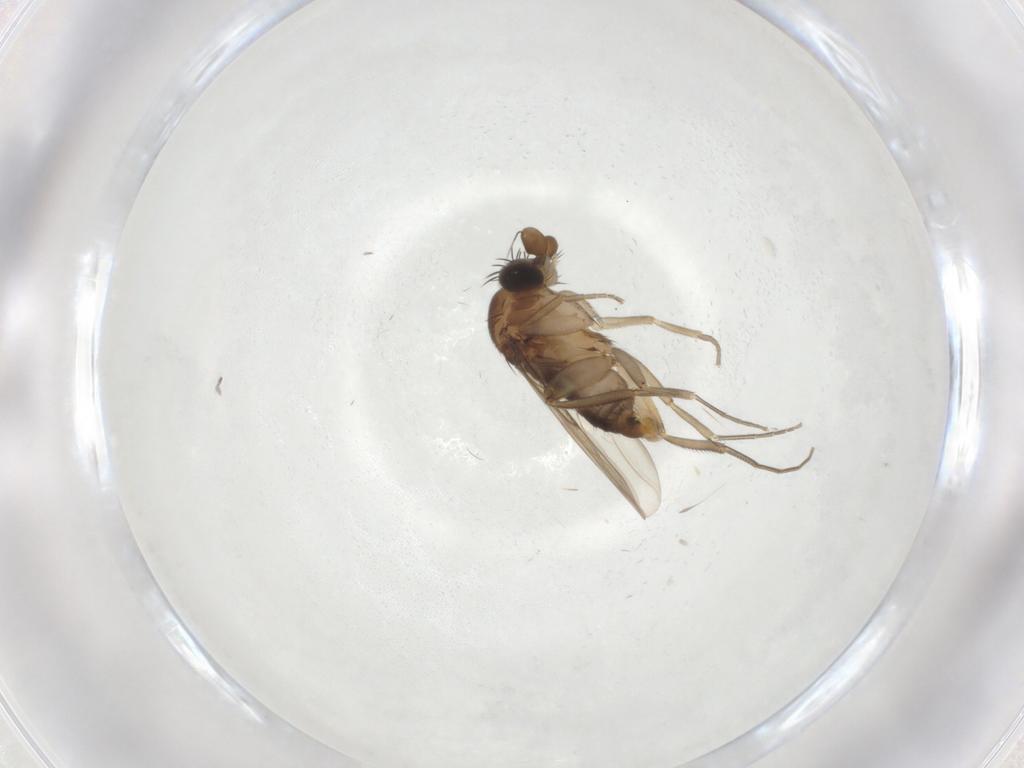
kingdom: Animalia
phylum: Arthropoda
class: Insecta
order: Diptera
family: Phoridae
